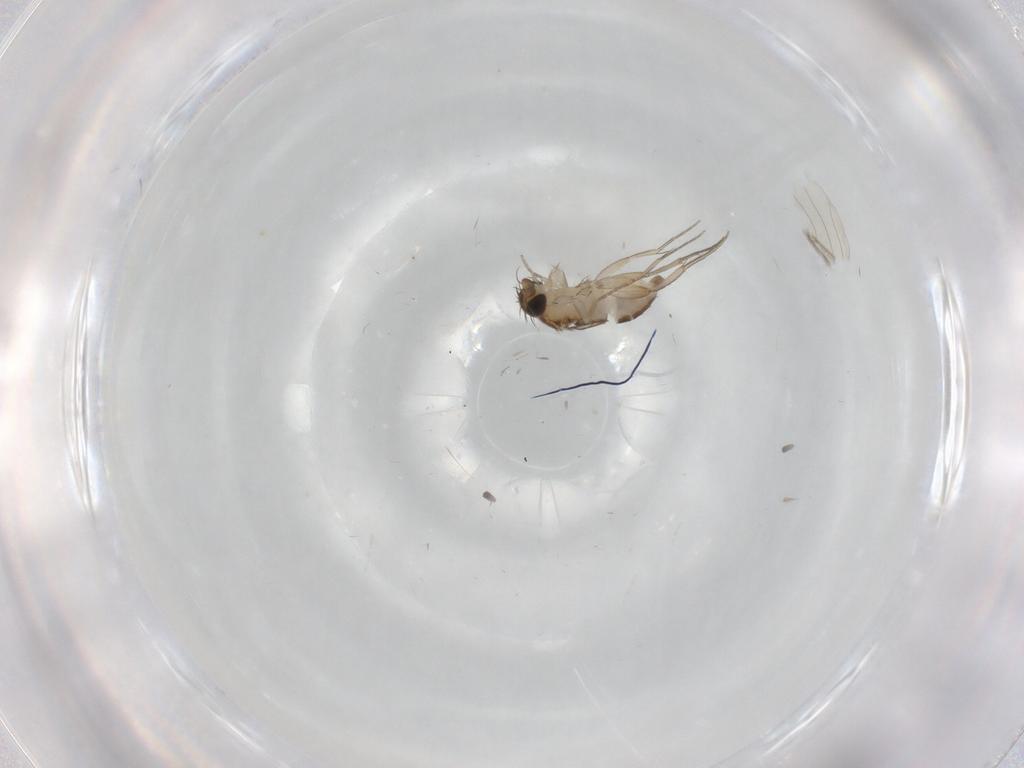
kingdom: Animalia
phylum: Arthropoda
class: Insecta
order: Diptera
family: Phoridae
